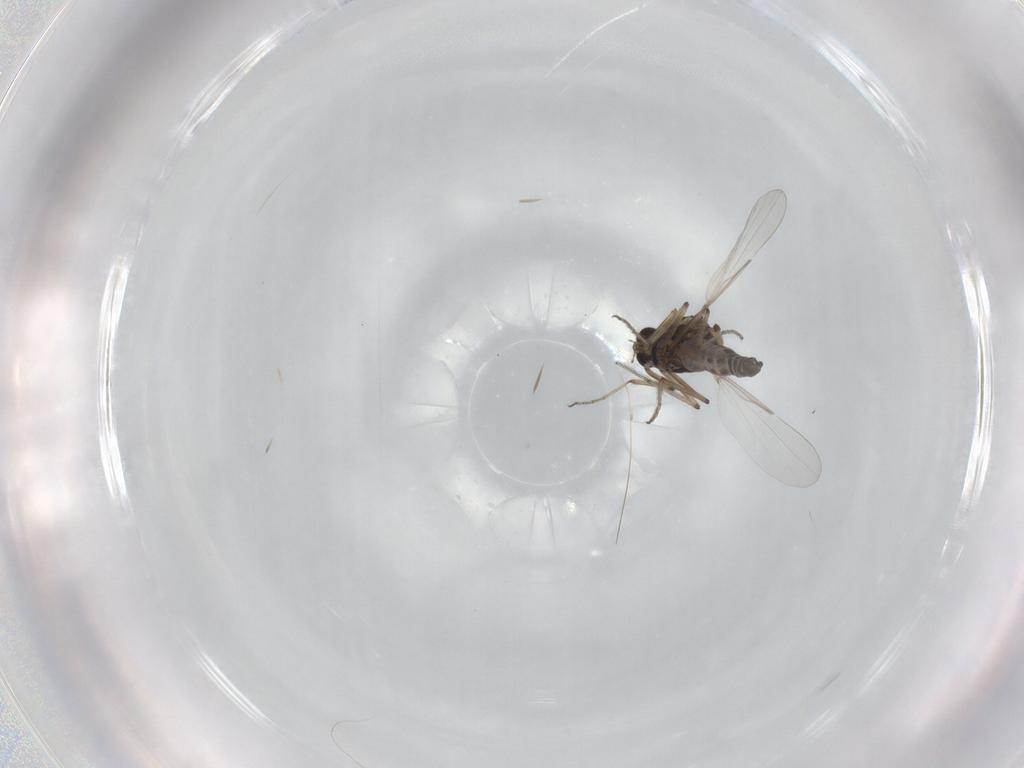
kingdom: Animalia
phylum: Arthropoda
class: Insecta
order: Diptera
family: Ceratopogonidae
